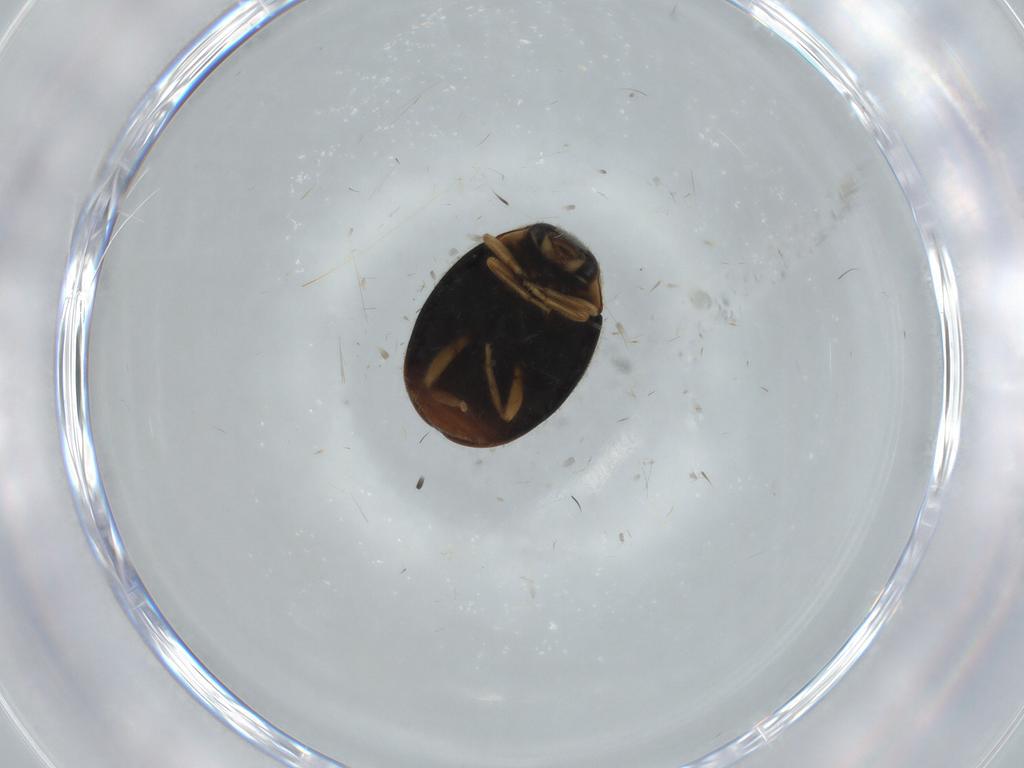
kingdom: Animalia
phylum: Arthropoda
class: Insecta
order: Coleoptera
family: Coccinellidae
